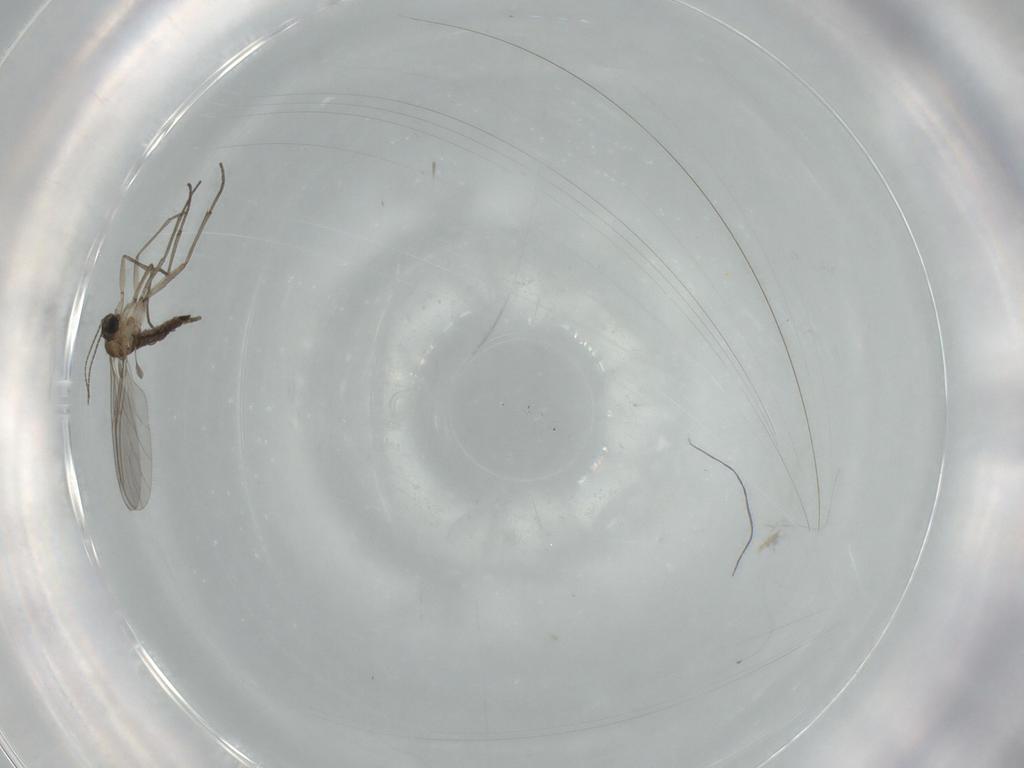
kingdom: Animalia
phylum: Arthropoda
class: Insecta
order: Diptera
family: Sciaridae
